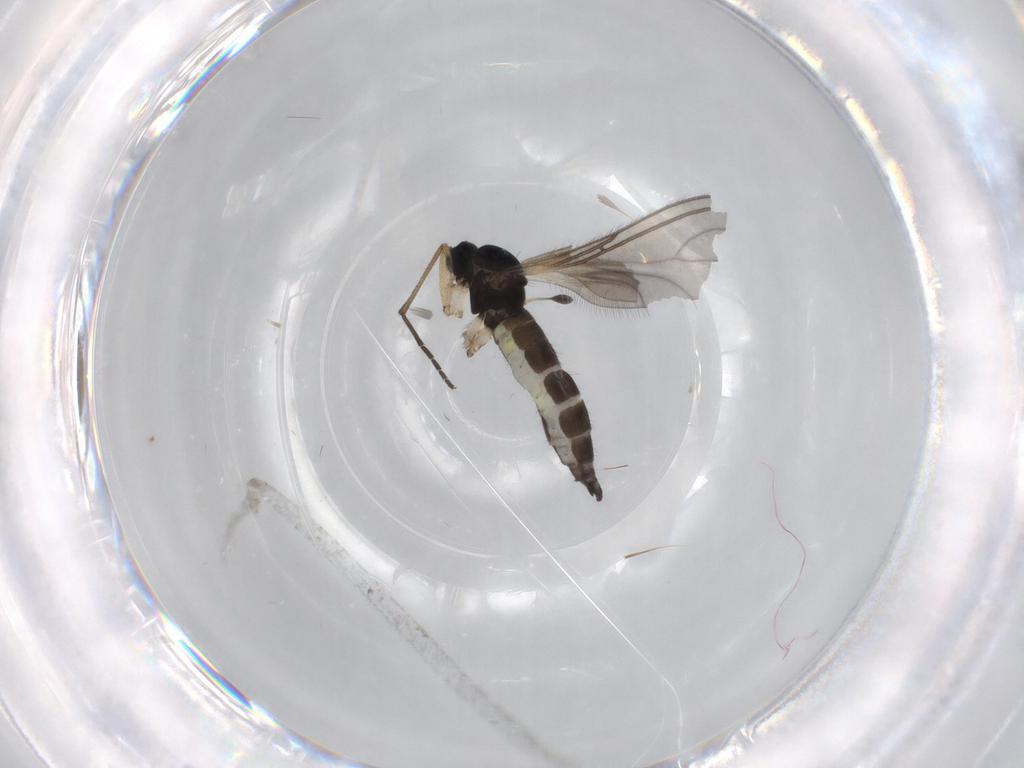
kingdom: Animalia
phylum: Arthropoda
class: Insecta
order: Diptera
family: Sciaridae
